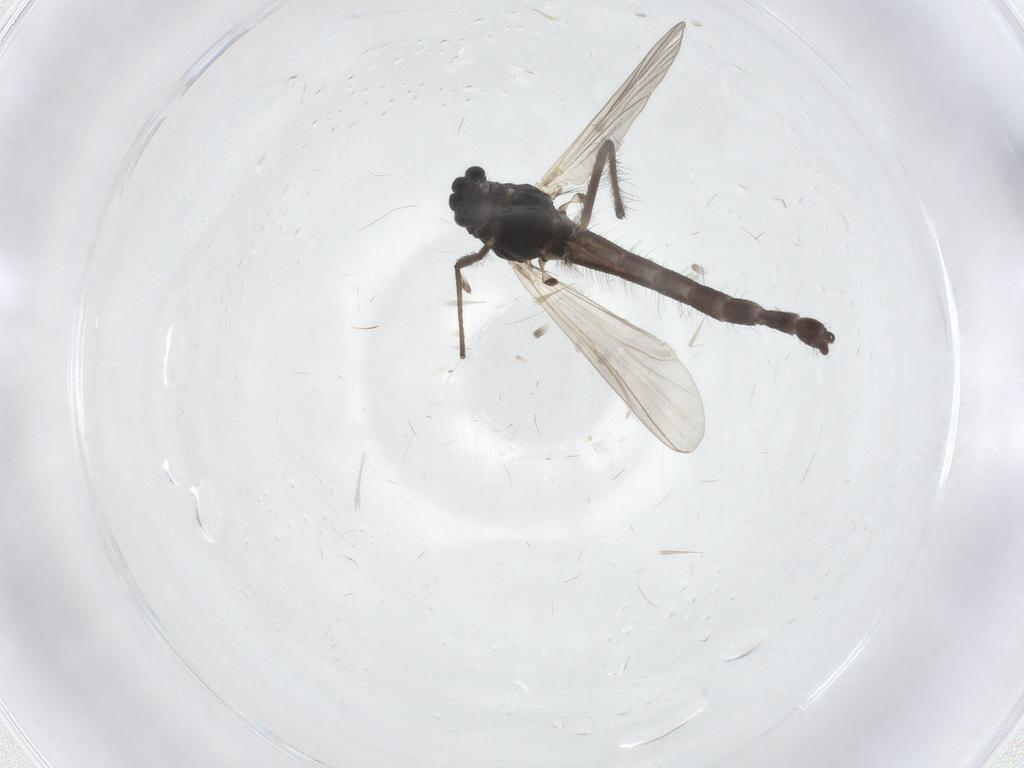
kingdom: Animalia
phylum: Arthropoda
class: Insecta
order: Diptera
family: Chironomidae
